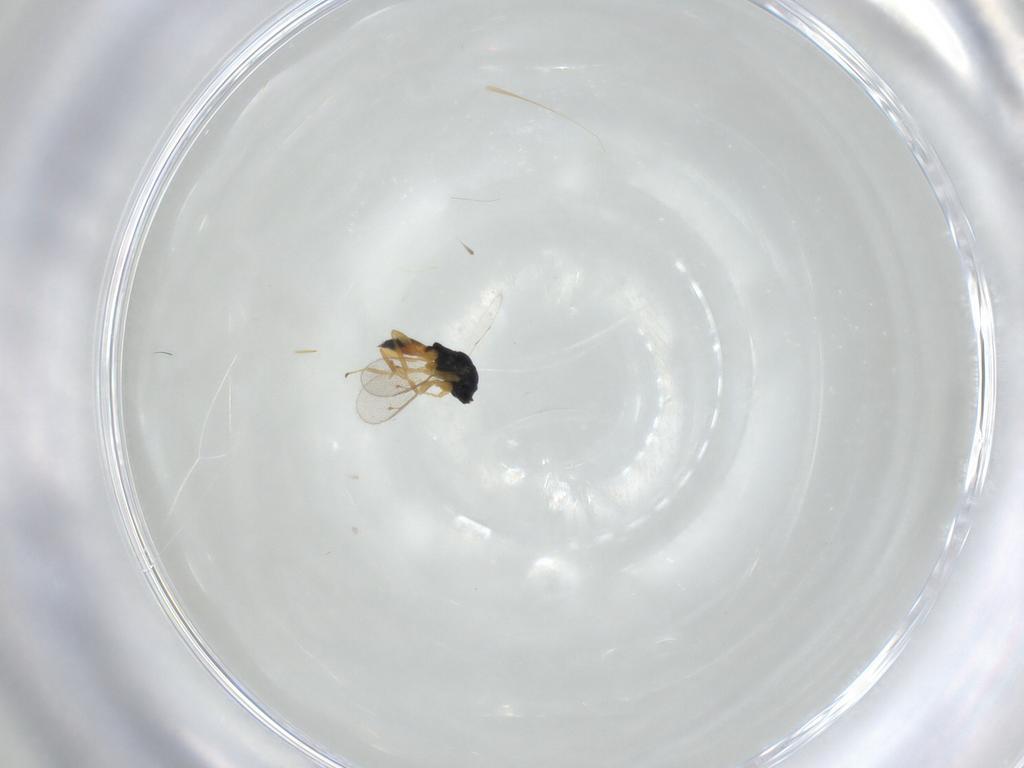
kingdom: Animalia
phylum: Arthropoda
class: Insecta
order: Hymenoptera
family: Pteromalidae
